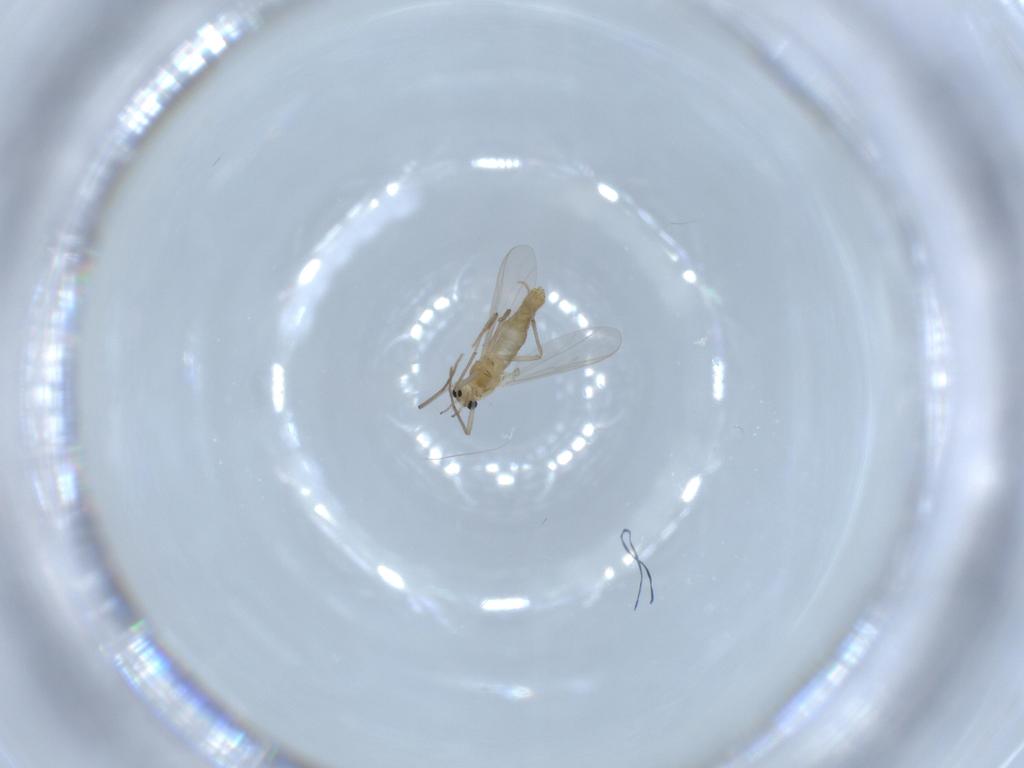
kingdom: Animalia
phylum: Arthropoda
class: Insecta
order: Diptera
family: Chironomidae
